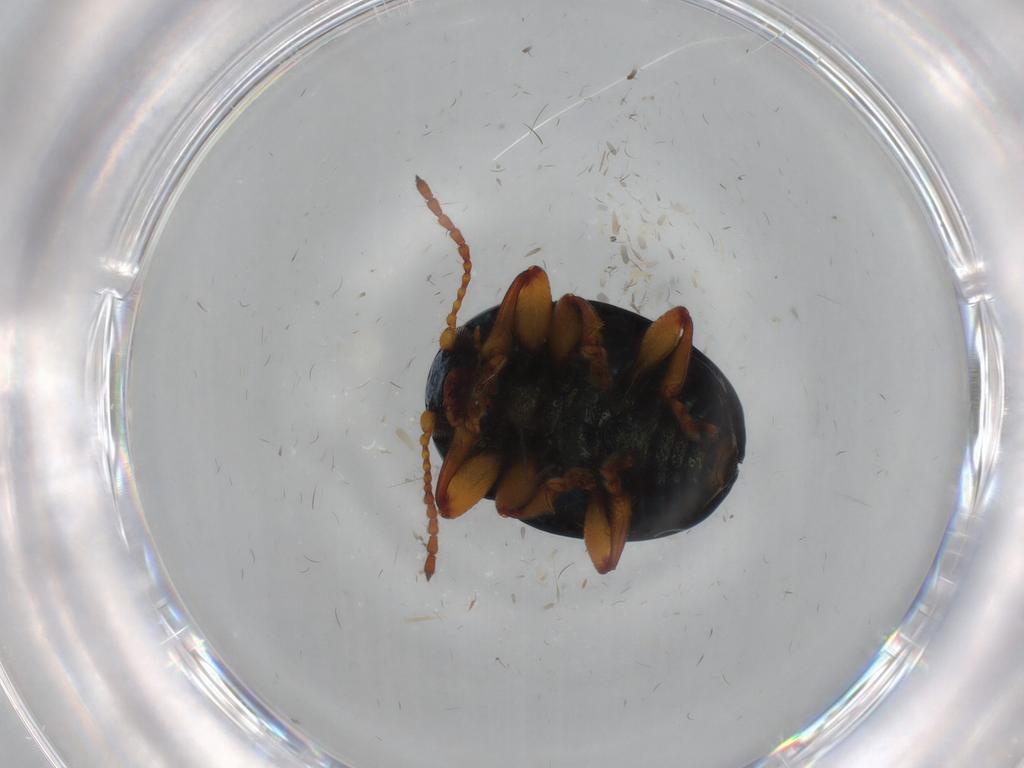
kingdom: Animalia
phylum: Arthropoda
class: Insecta
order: Coleoptera
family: Chrysomelidae
